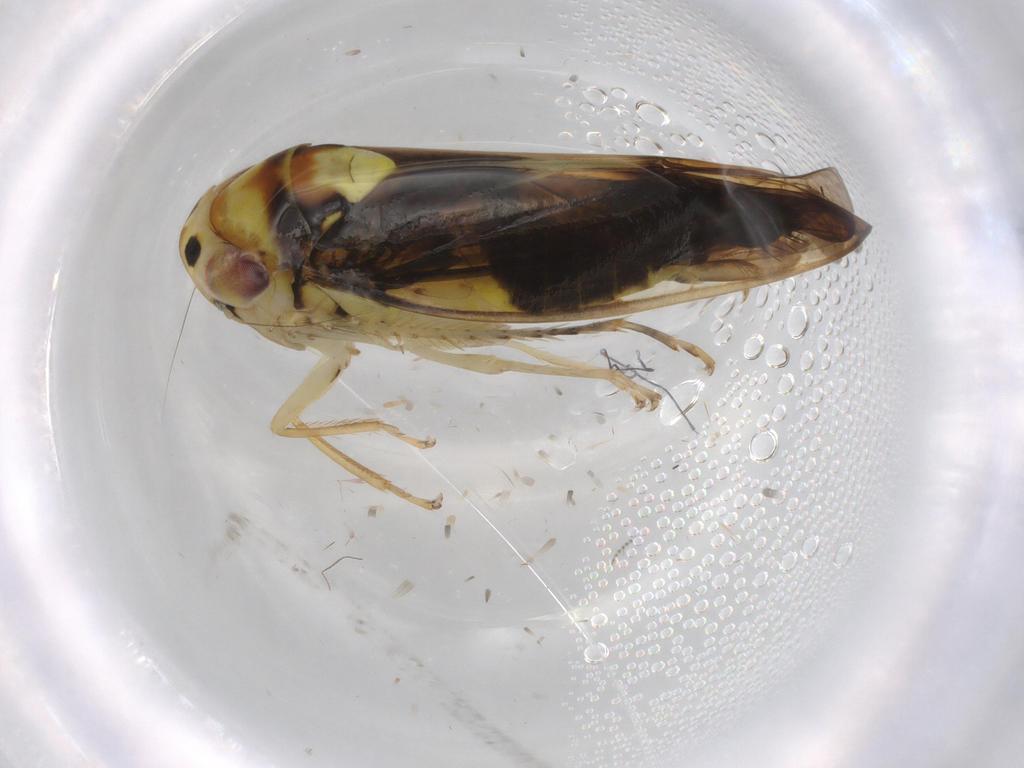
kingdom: Animalia
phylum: Arthropoda
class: Insecta
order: Hemiptera
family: Cicadellidae
